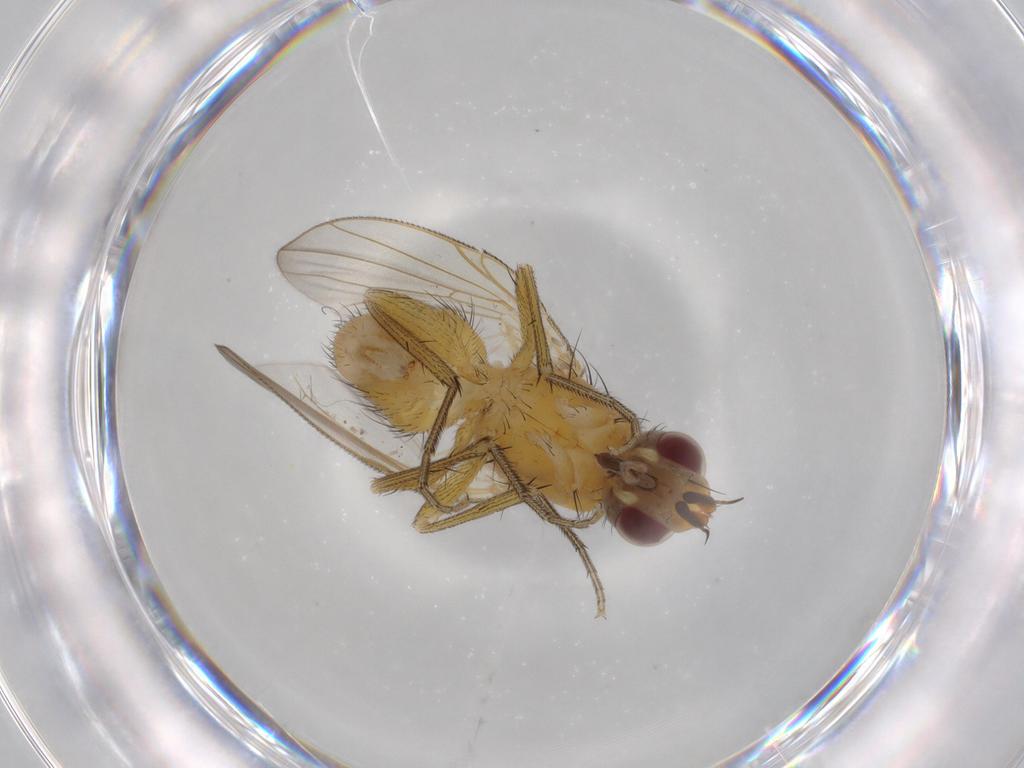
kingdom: Animalia
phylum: Arthropoda
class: Insecta
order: Diptera
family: Muscidae
